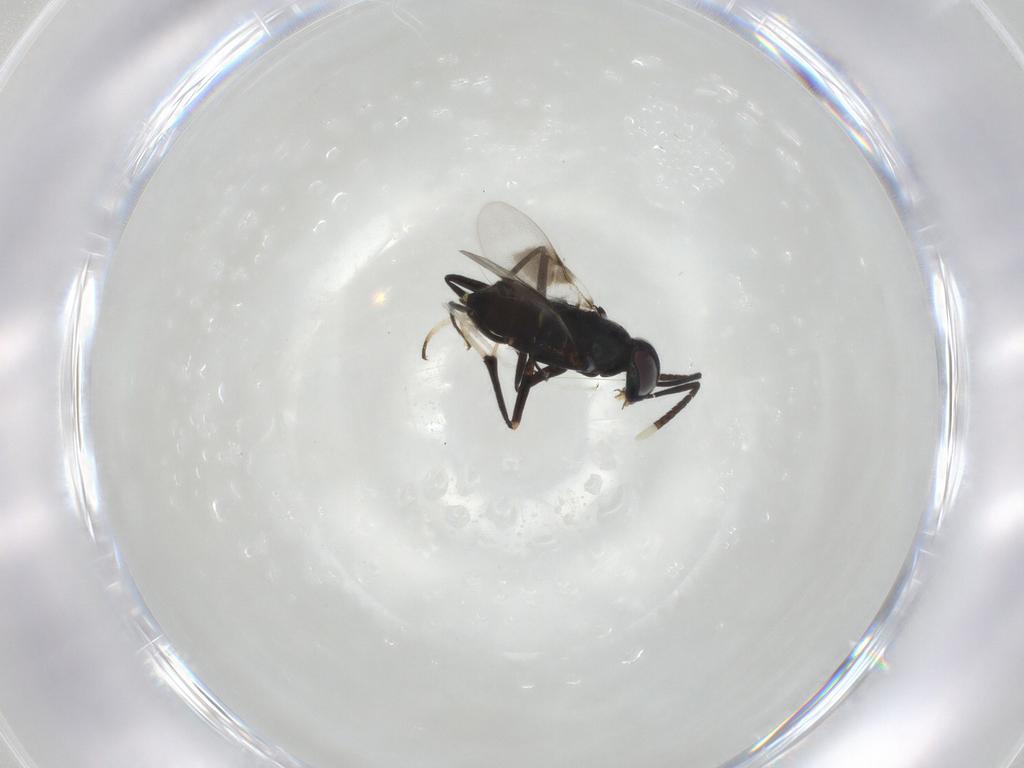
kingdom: Animalia
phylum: Arthropoda
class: Insecta
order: Hymenoptera
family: Encyrtidae
